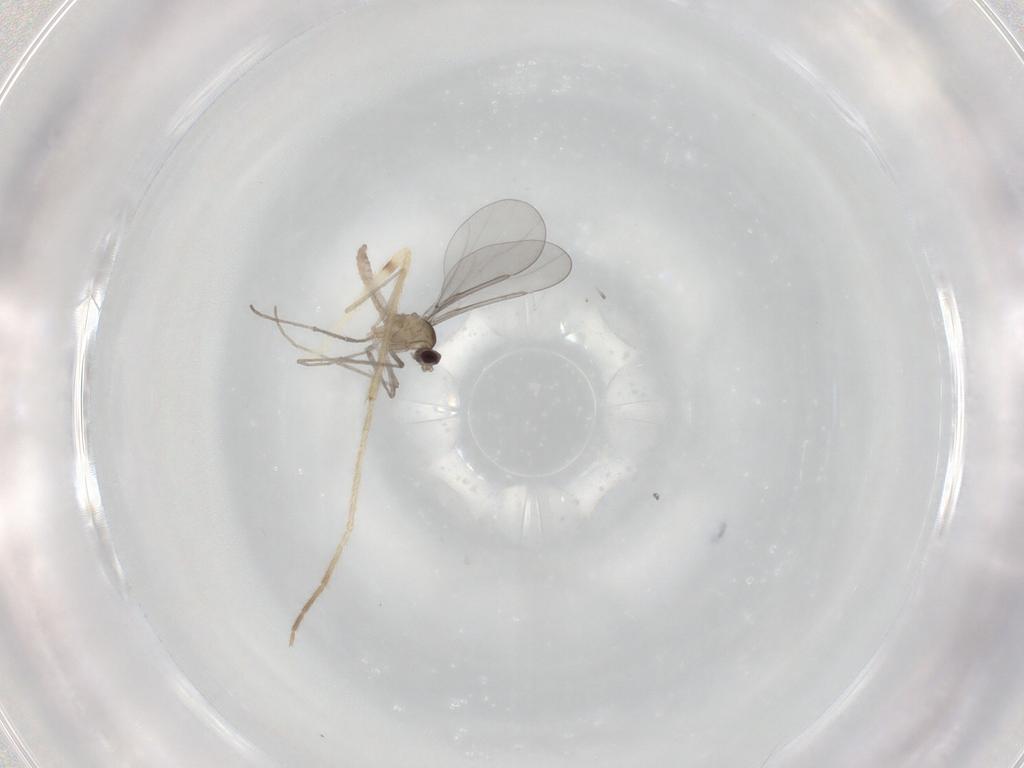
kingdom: Animalia
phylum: Arthropoda
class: Insecta
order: Diptera
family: Cecidomyiidae
